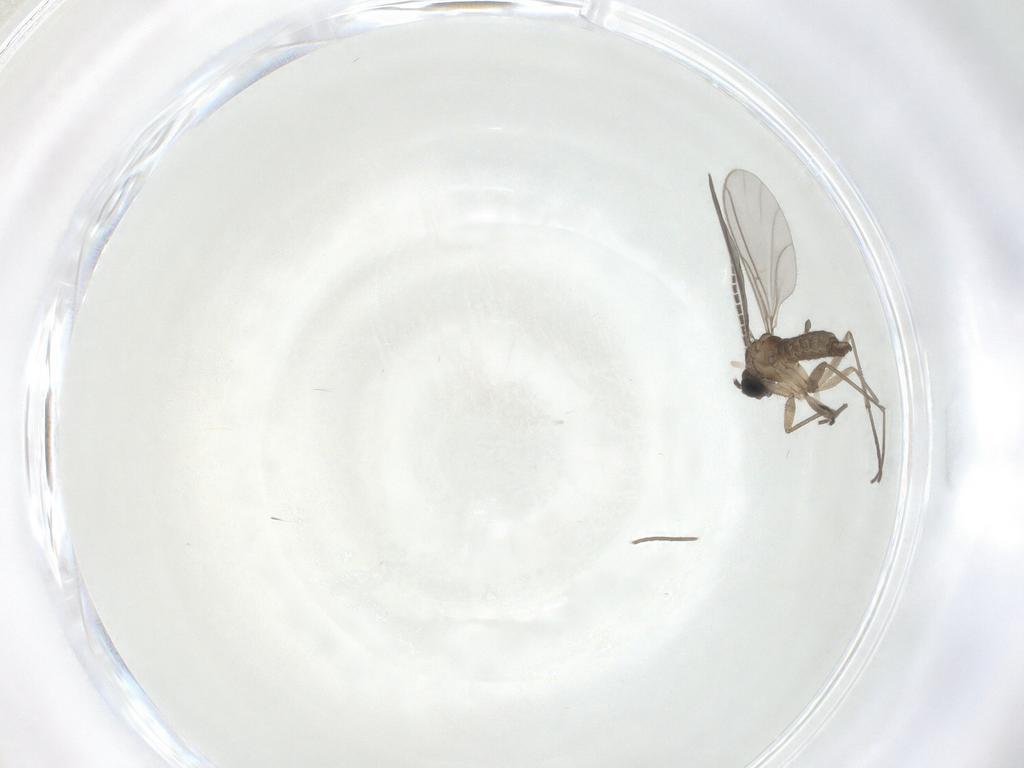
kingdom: Animalia
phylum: Arthropoda
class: Insecta
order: Diptera
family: Sciaridae
